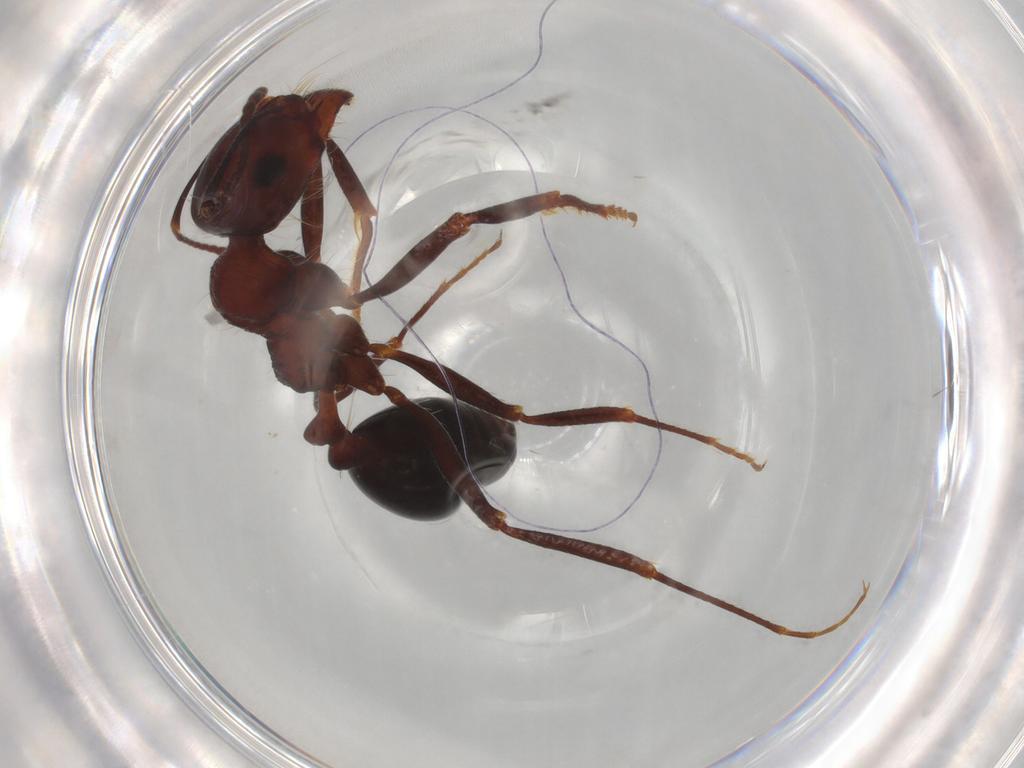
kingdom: Animalia
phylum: Arthropoda
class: Insecta
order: Hymenoptera
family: Formicidae
